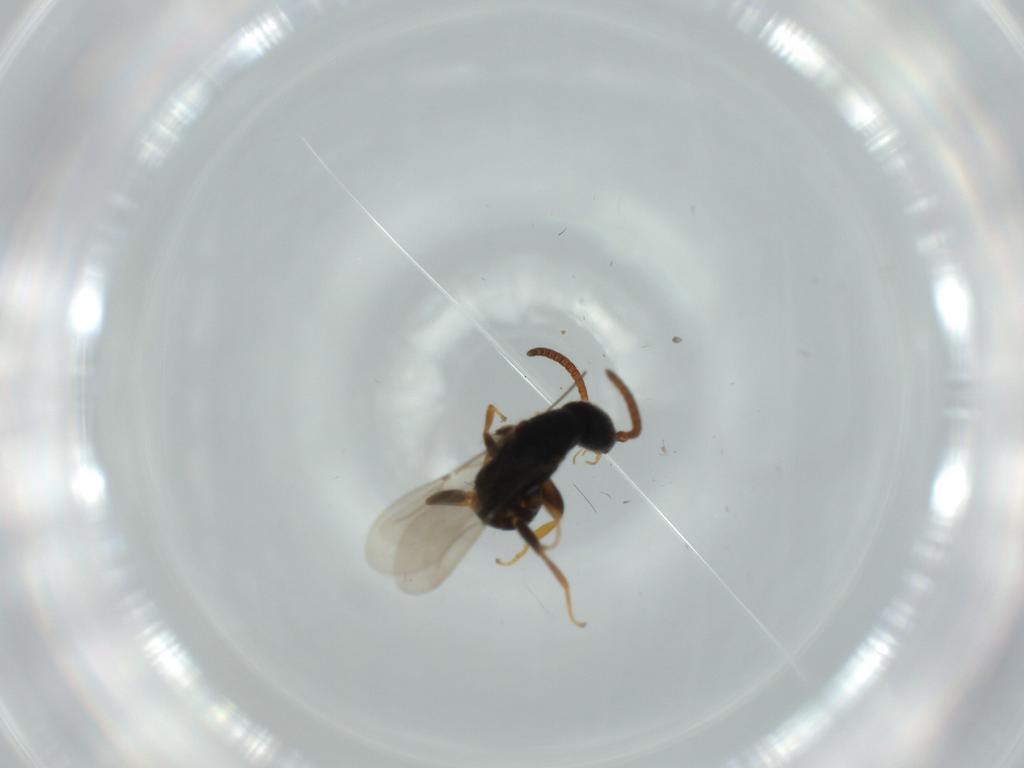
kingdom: Animalia
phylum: Arthropoda
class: Insecta
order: Hymenoptera
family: Bethylidae
